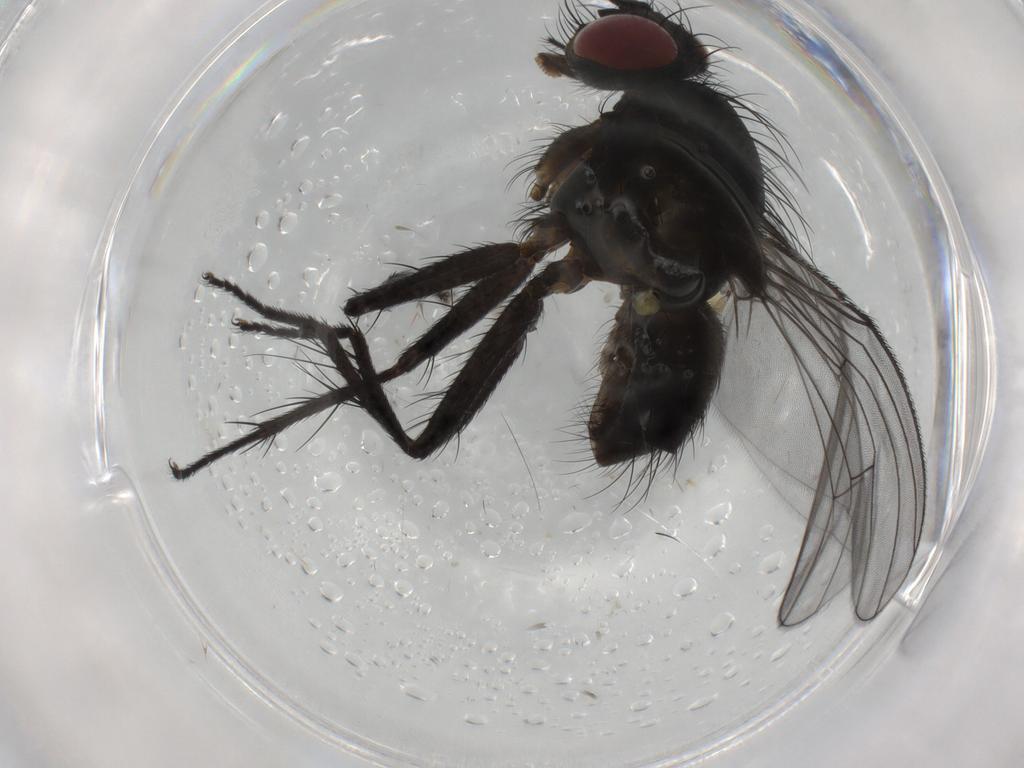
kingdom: Animalia
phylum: Arthropoda
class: Insecta
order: Diptera
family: Muscidae
